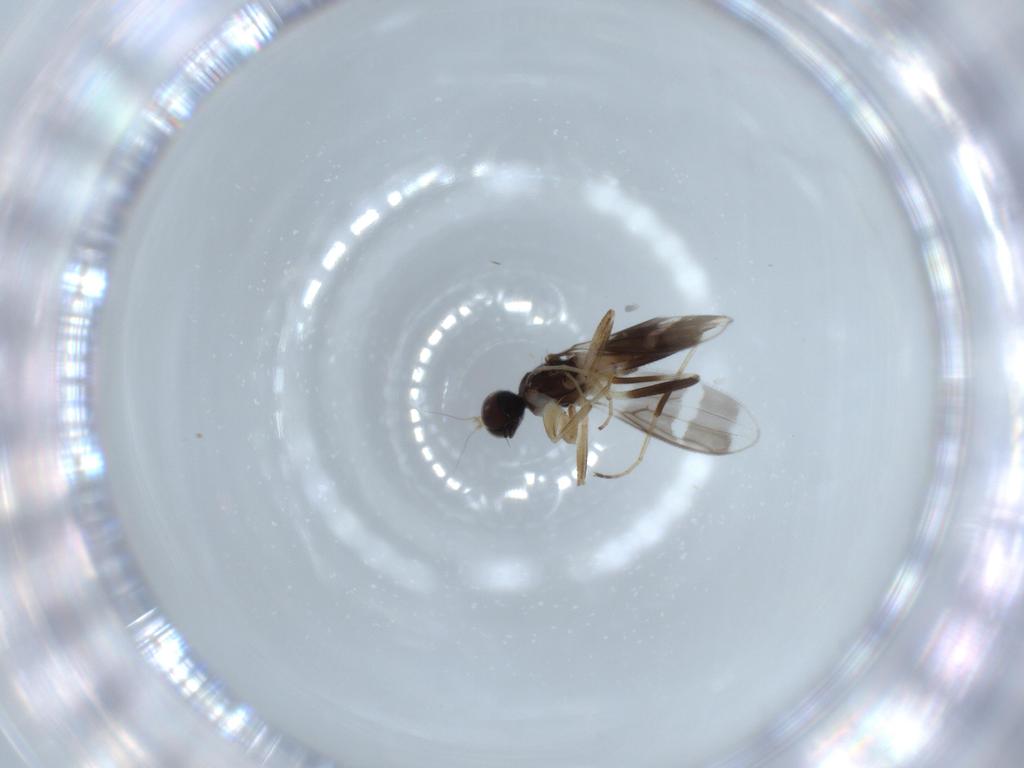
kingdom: Animalia
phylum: Arthropoda
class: Insecta
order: Diptera
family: Hybotidae
